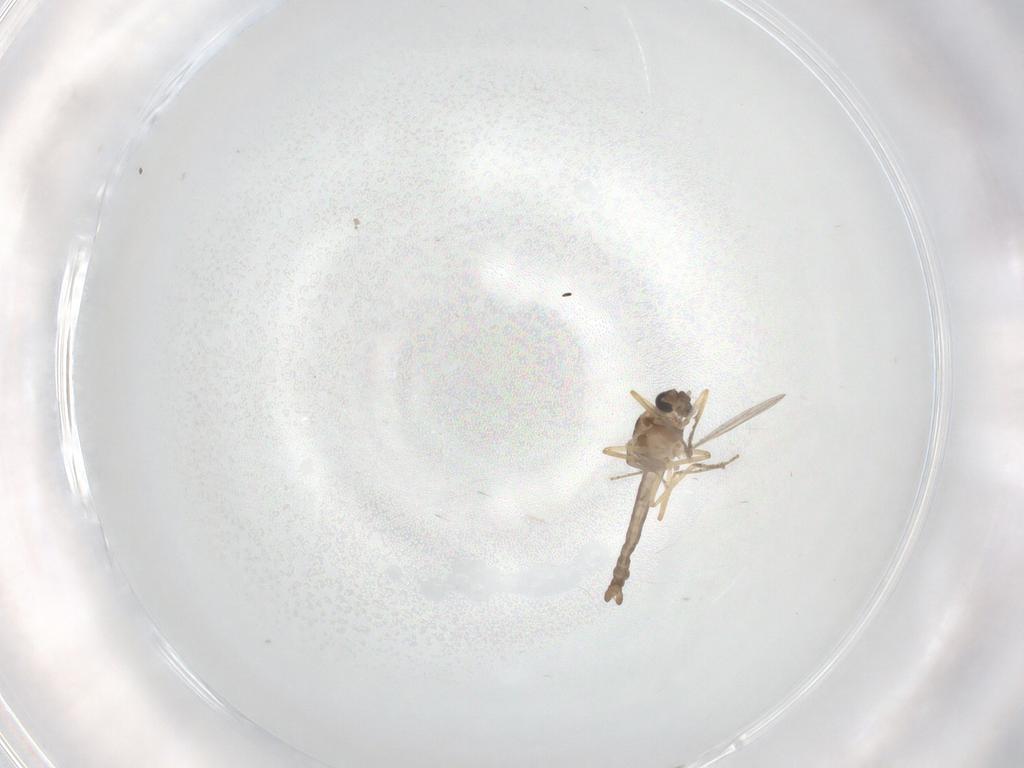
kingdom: Animalia
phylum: Arthropoda
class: Insecta
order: Diptera
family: Ceratopogonidae
